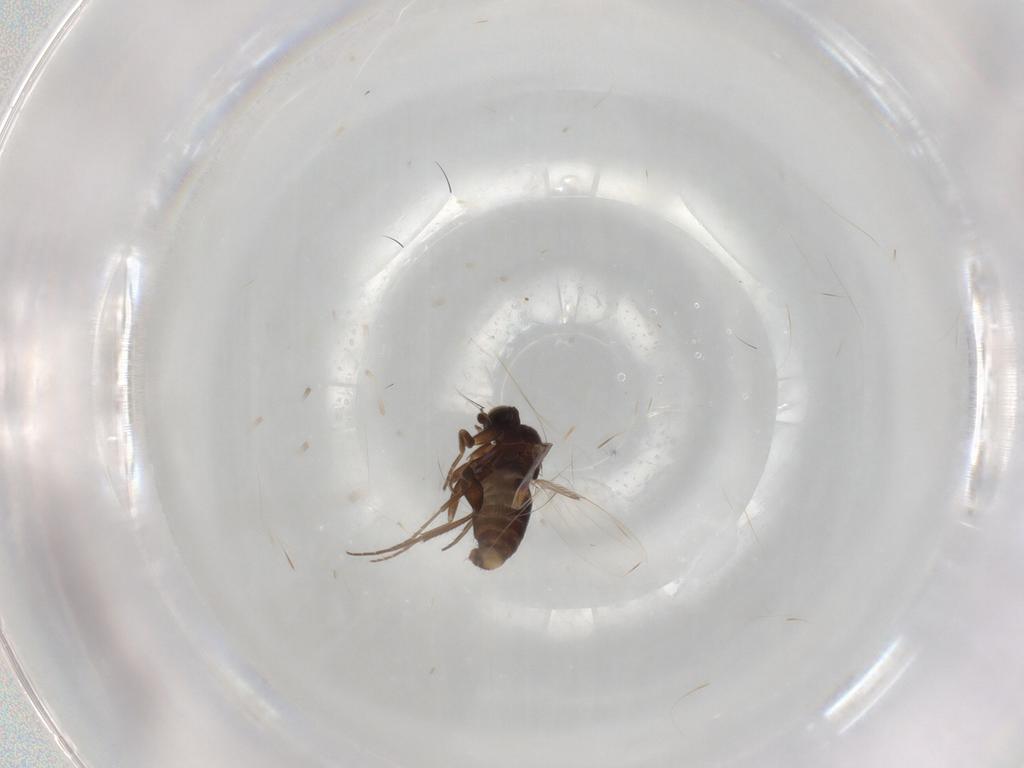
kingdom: Animalia
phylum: Arthropoda
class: Insecta
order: Diptera
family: Phoridae
